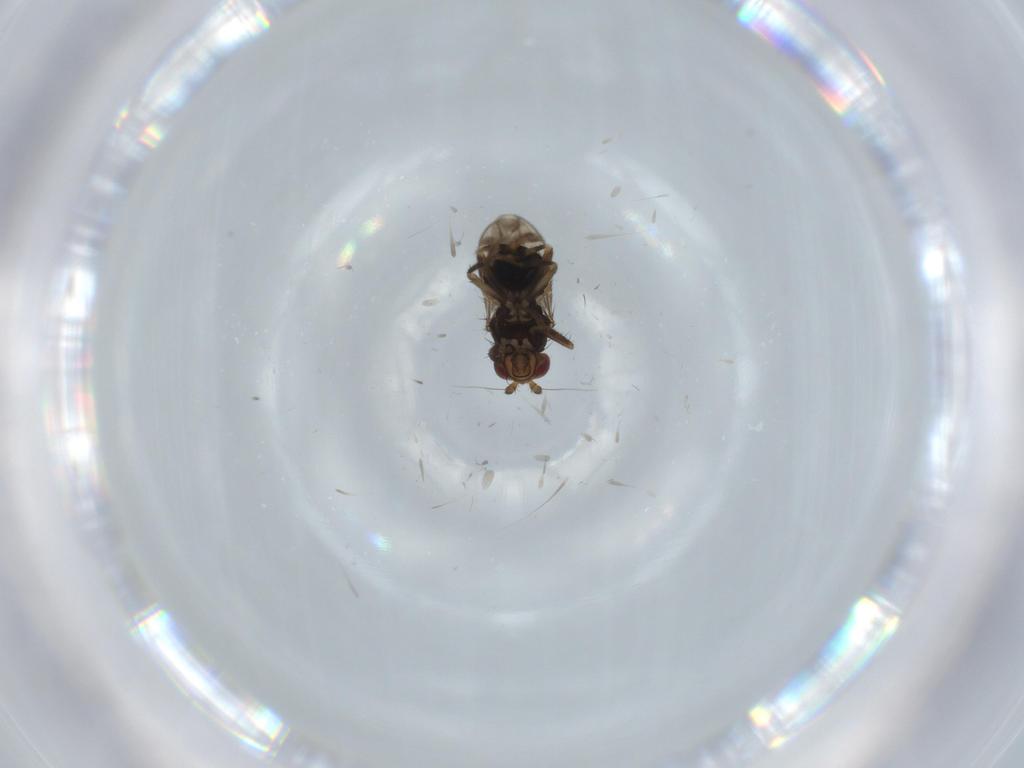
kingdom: Animalia
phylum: Arthropoda
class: Insecta
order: Diptera
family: Sphaeroceridae
